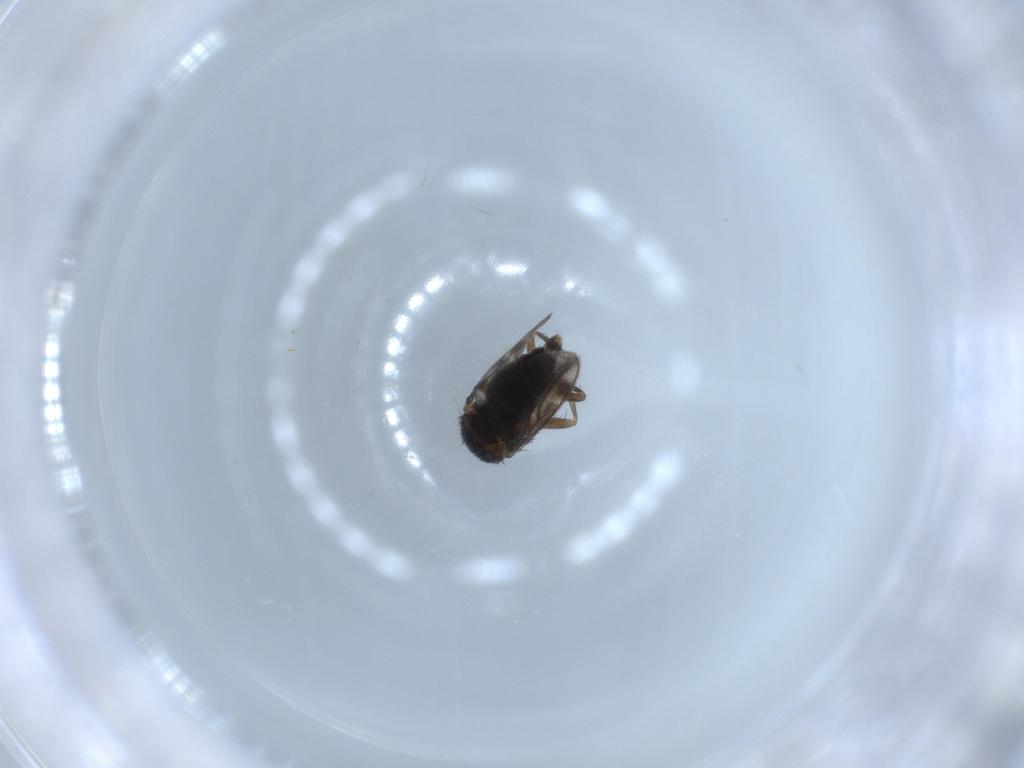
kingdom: Animalia
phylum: Arthropoda
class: Insecta
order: Diptera
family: Sphaeroceridae
